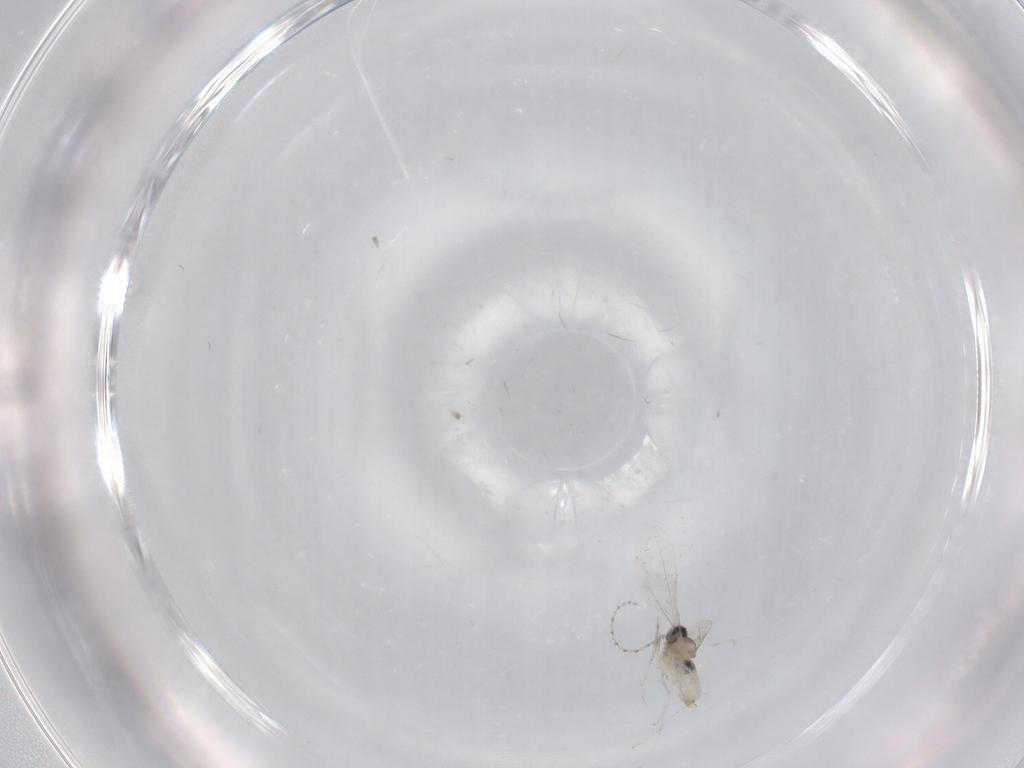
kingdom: Animalia
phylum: Arthropoda
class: Insecta
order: Diptera
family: Cecidomyiidae
